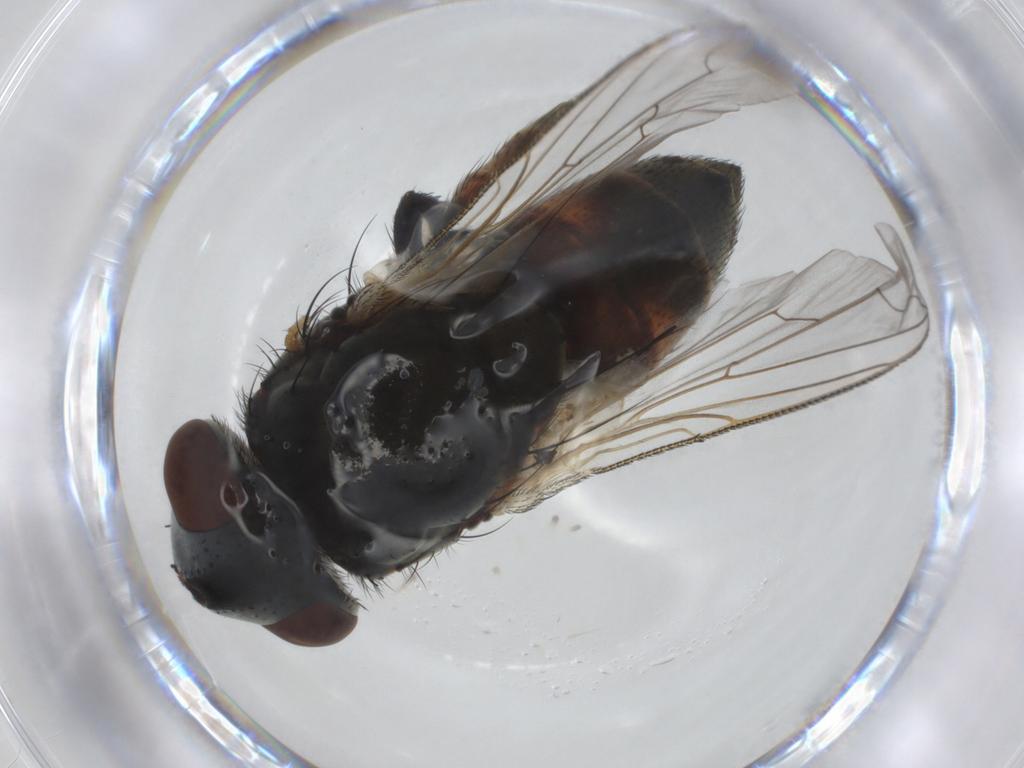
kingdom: Animalia
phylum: Arthropoda
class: Insecta
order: Diptera
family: Sarcophagidae
